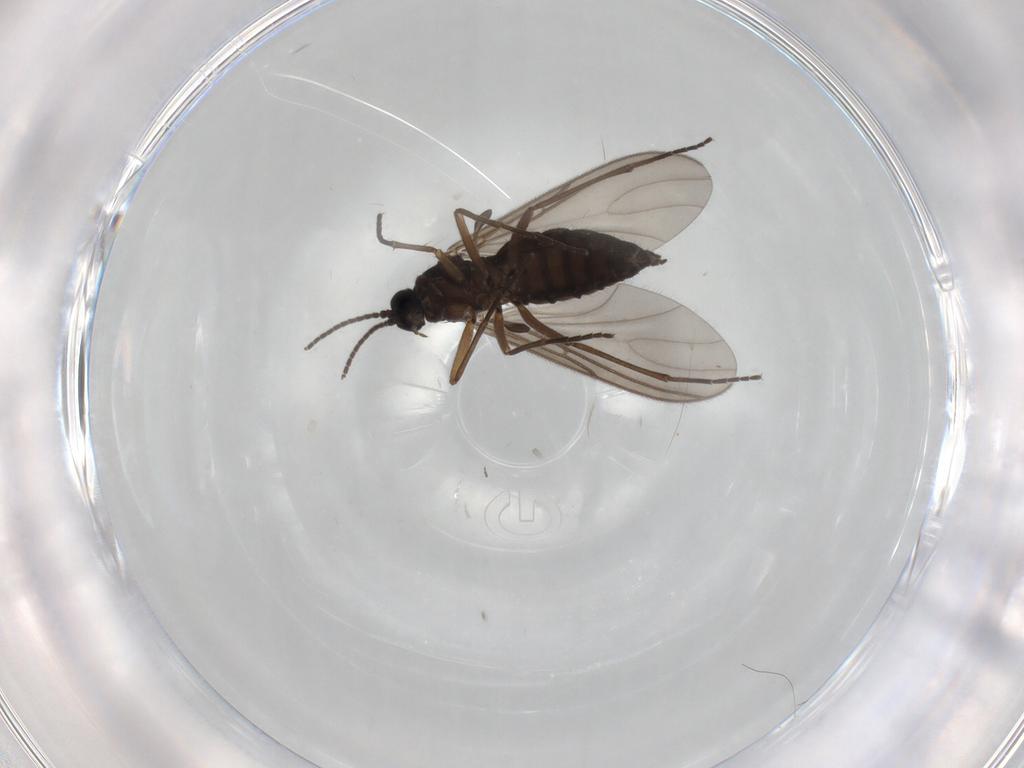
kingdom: Animalia
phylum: Arthropoda
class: Insecta
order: Diptera
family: Sciaridae
